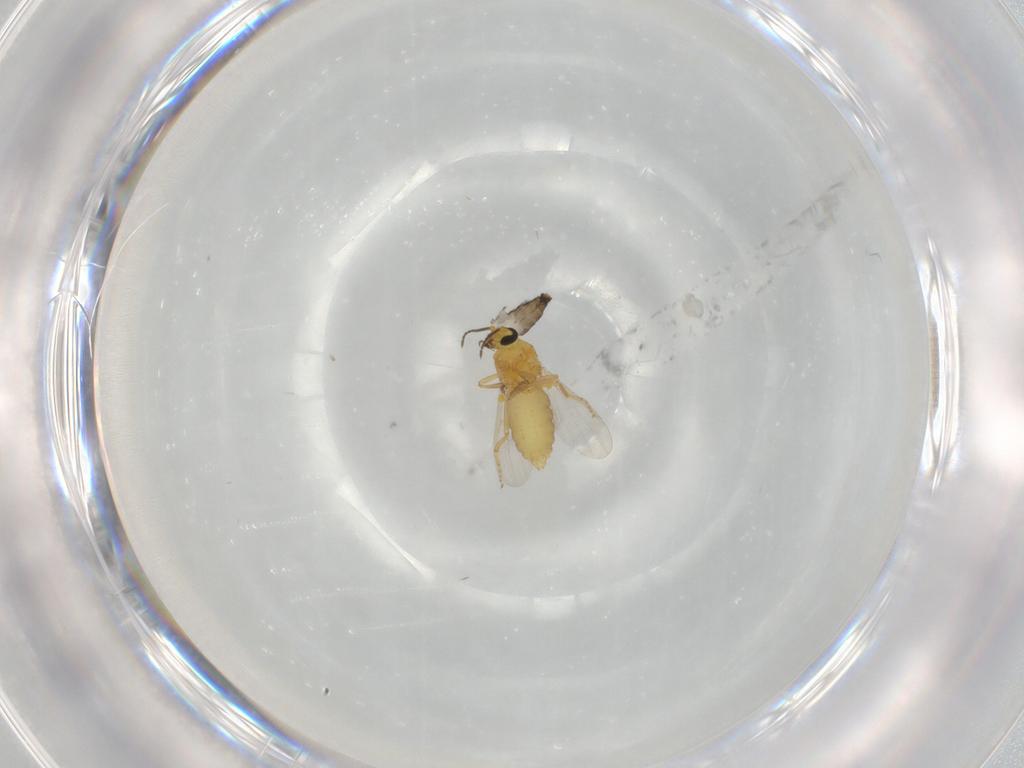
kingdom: Animalia
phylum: Arthropoda
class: Insecta
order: Diptera
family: Ceratopogonidae
